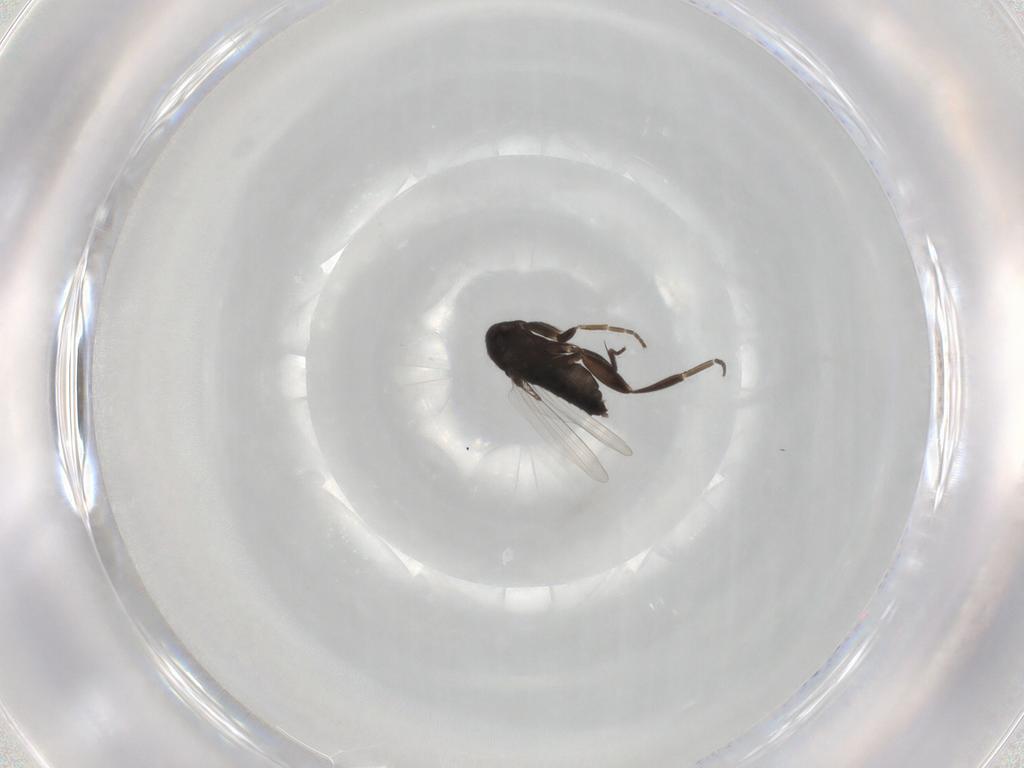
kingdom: Animalia
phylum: Arthropoda
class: Insecta
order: Diptera
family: Phoridae
